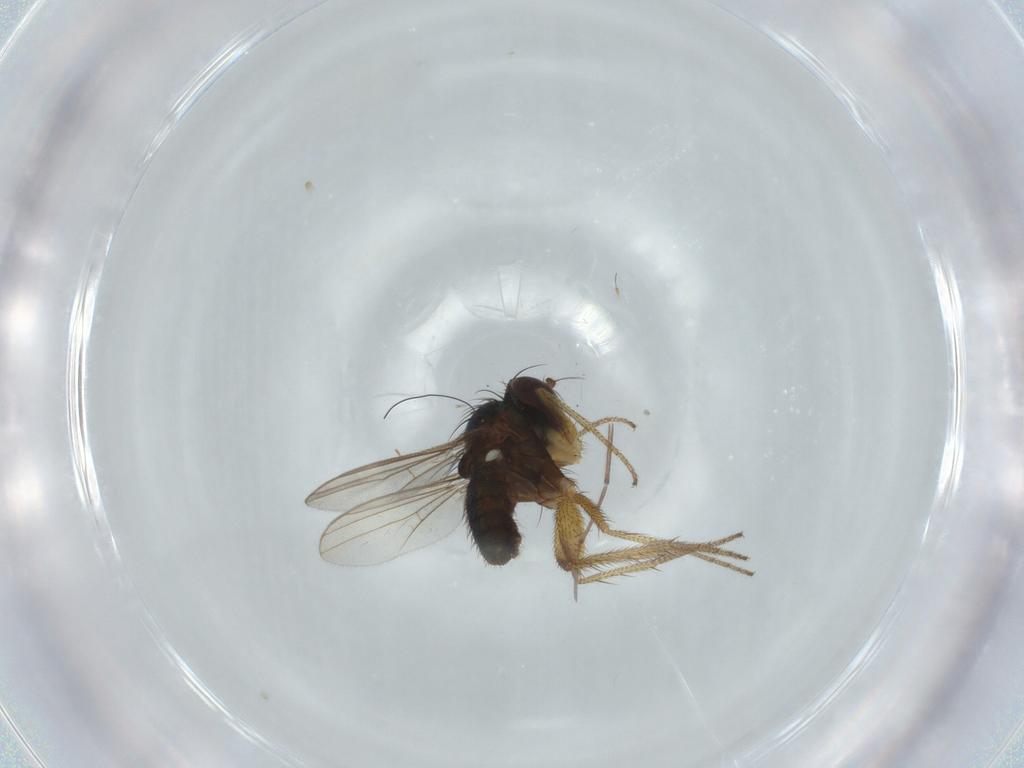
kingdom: Animalia
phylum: Arthropoda
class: Insecta
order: Diptera
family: Dolichopodidae
